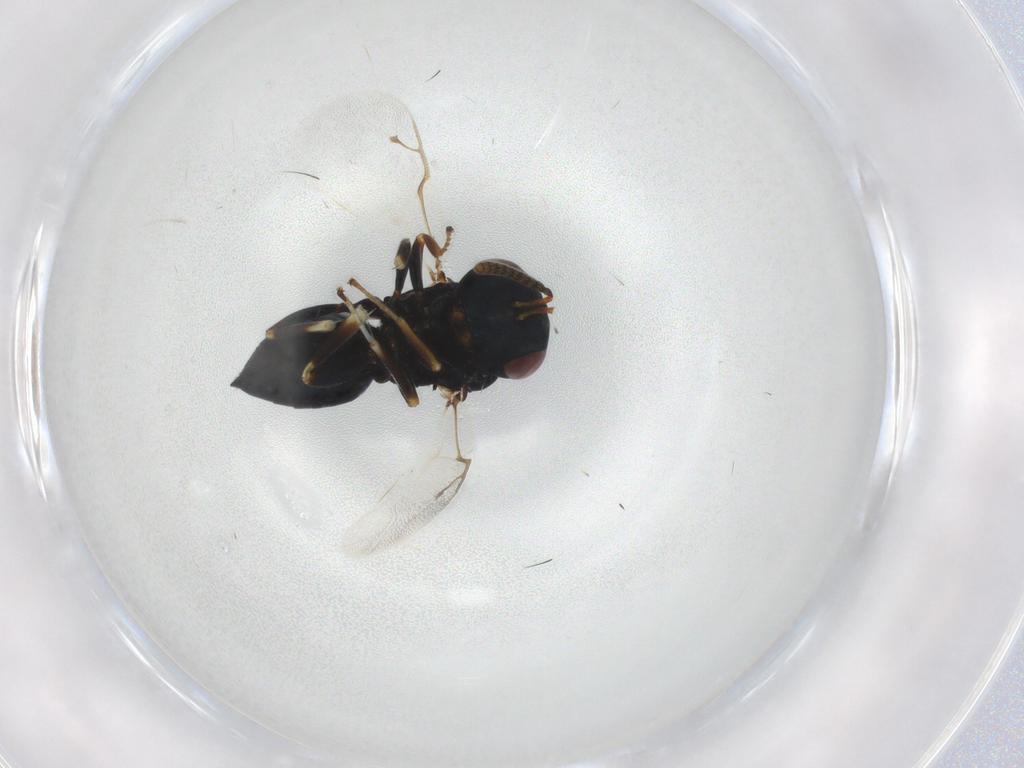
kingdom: Animalia
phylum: Arthropoda
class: Insecta
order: Hymenoptera
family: Pteromalidae
